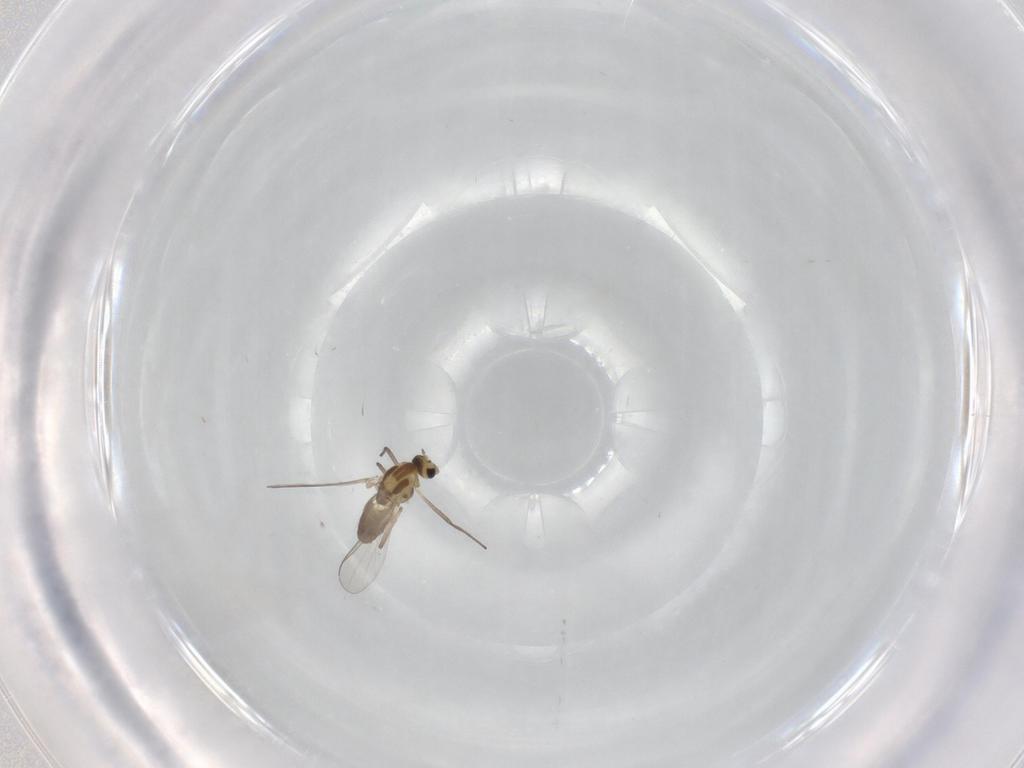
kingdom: Animalia
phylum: Arthropoda
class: Insecta
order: Diptera
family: Chironomidae
